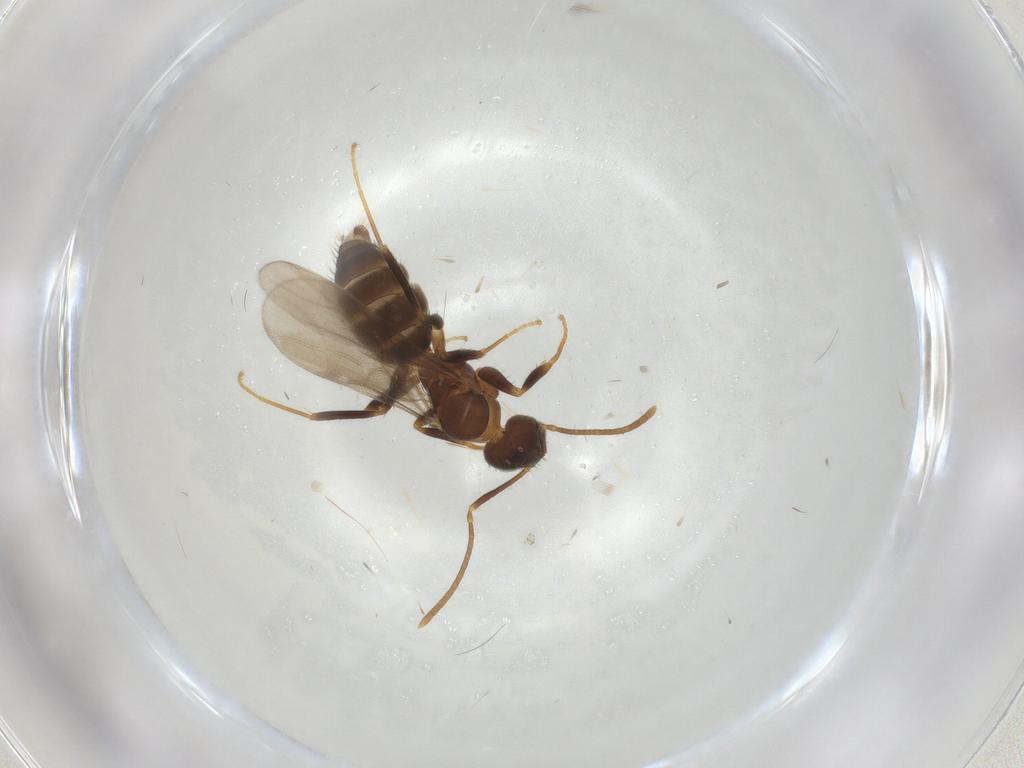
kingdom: Animalia
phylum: Arthropoda
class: Insecta
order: Hymenoptera
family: Formicidae
